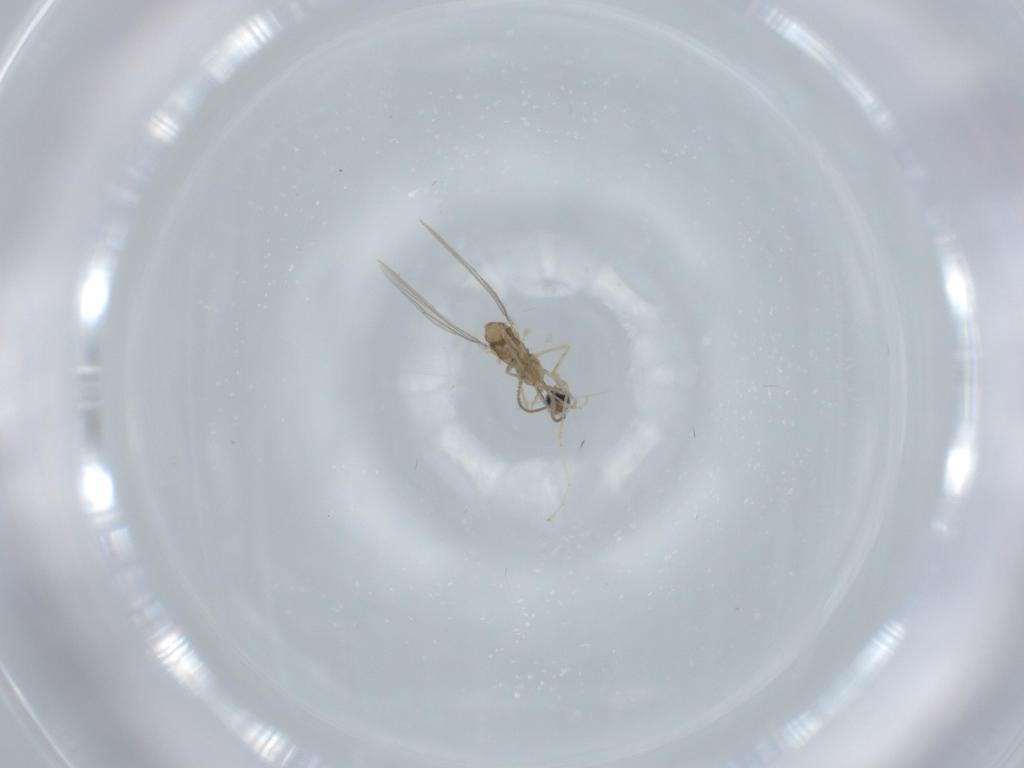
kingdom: Animalia
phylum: Arthropoda
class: Insecta
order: Diptera
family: Cecidomyiidae
